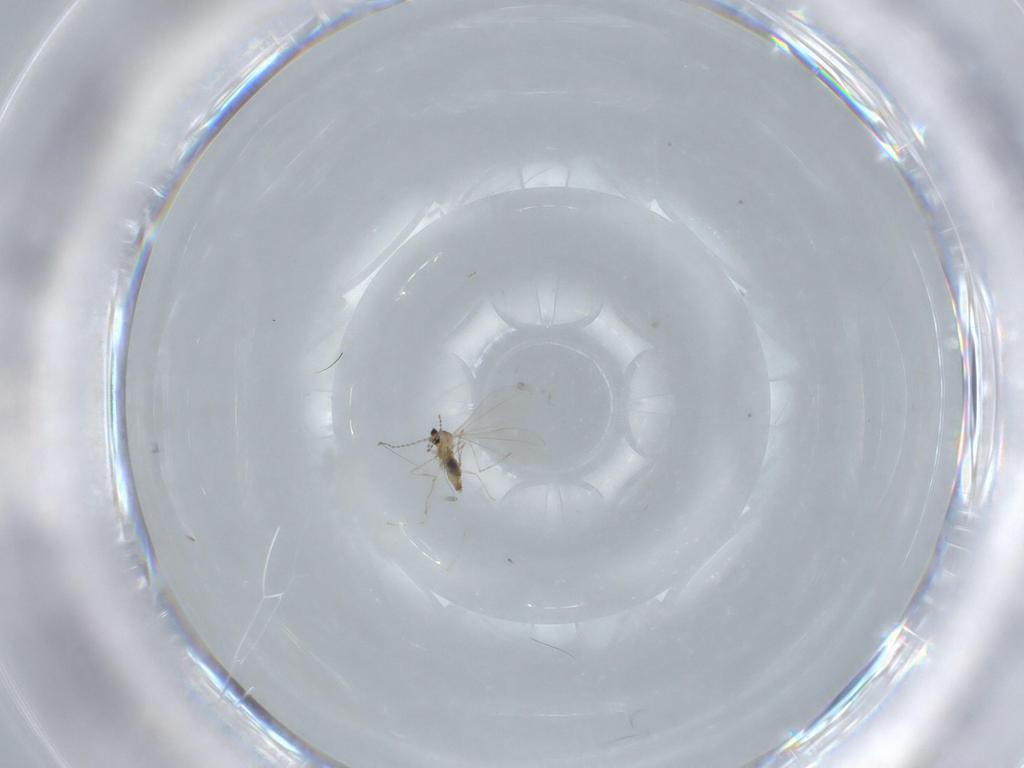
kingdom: Animalia
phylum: Arthropoda
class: Insecta
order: Diptera
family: Cecidomyiidae
